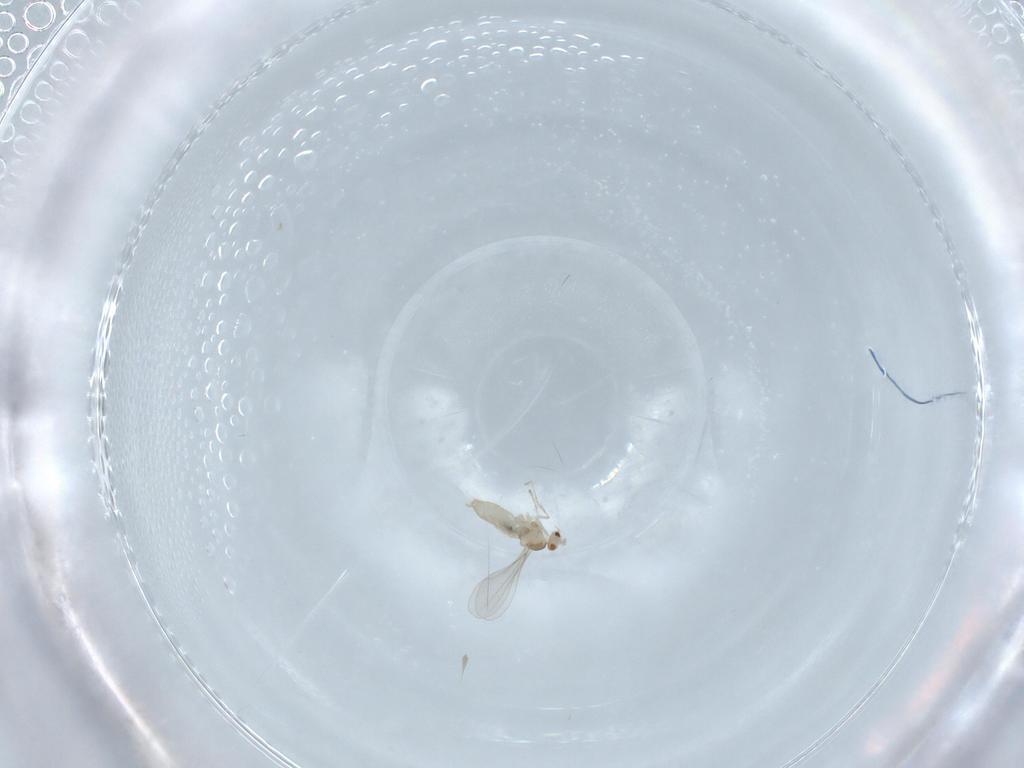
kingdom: Animalia
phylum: Arthropoda
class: Insecta
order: Diptera
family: Cecidomyiidae
